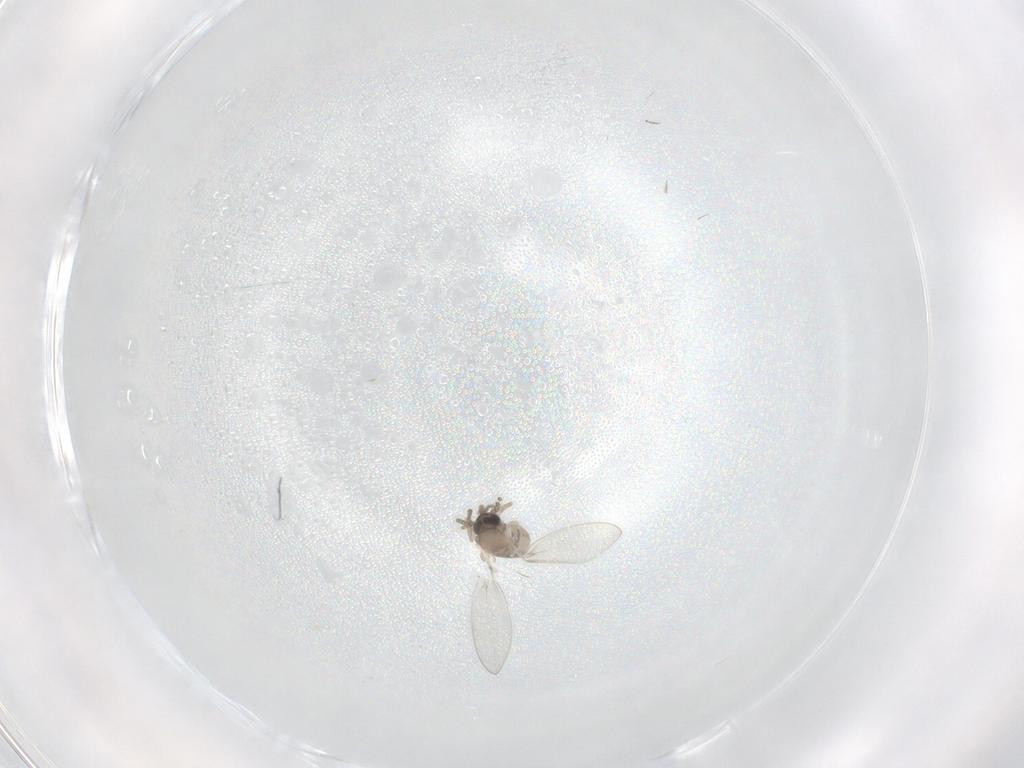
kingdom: Animalia
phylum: Arthropoda
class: Insecta
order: Diptera
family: Psychodidae
